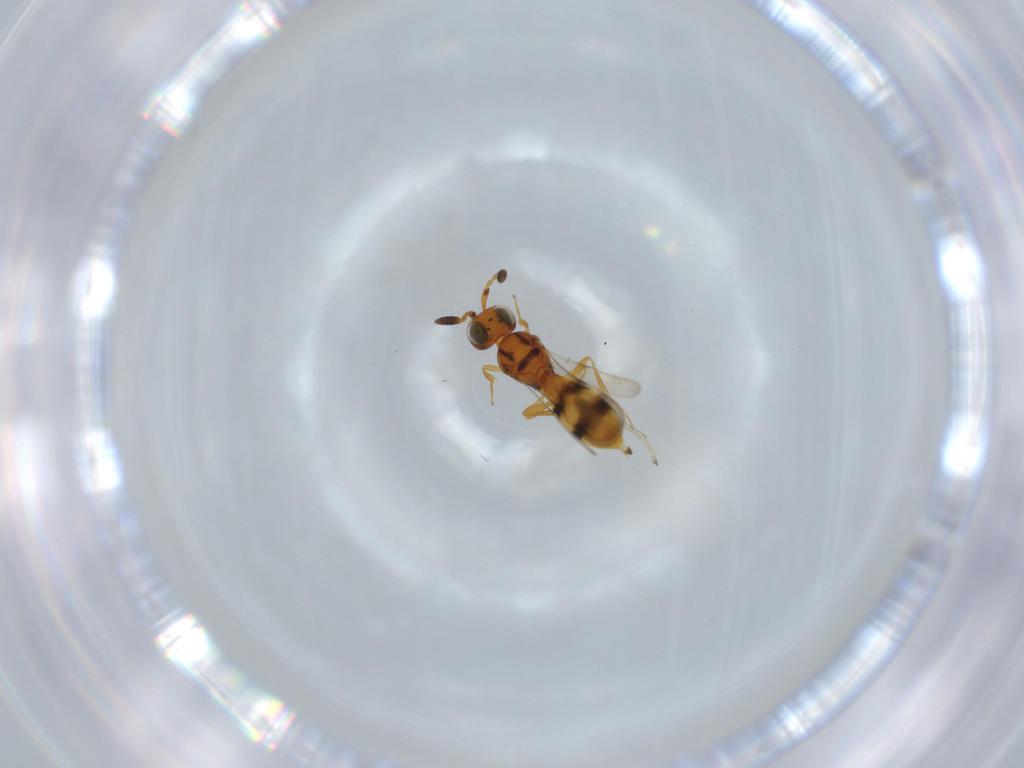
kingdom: Animalia
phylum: Arthropoda
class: Insecta
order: Hymenoptera
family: Scelionidae
